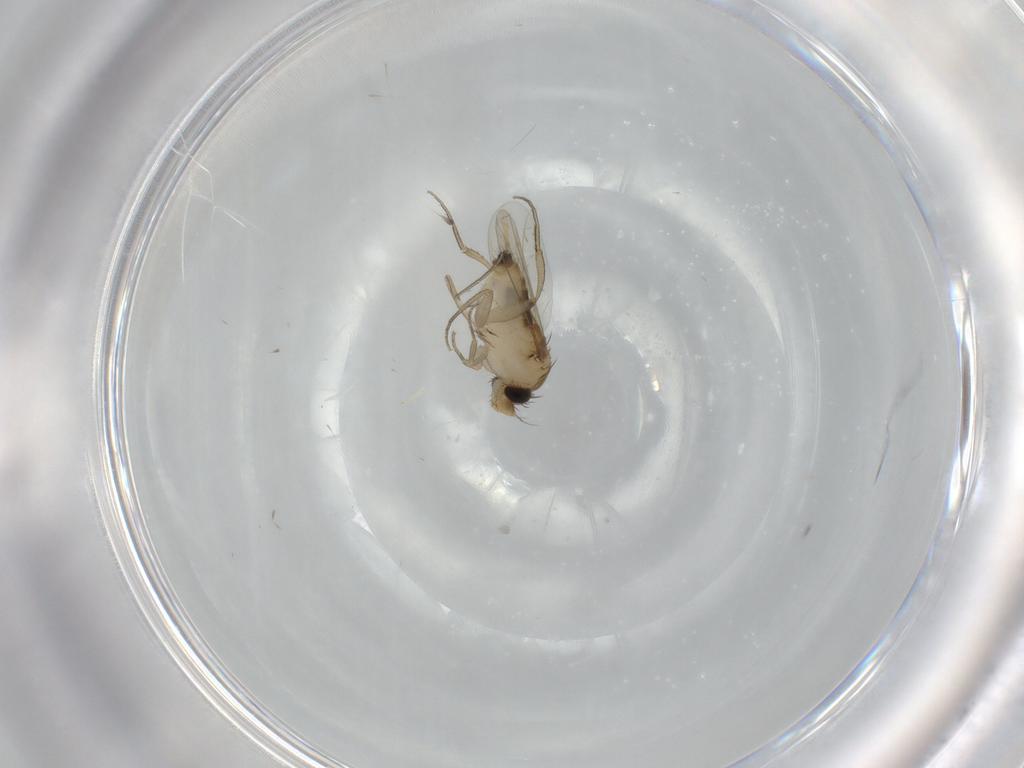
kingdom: Animalia
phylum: Arthropoda
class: Insecta
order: Diptera
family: Phoridae
